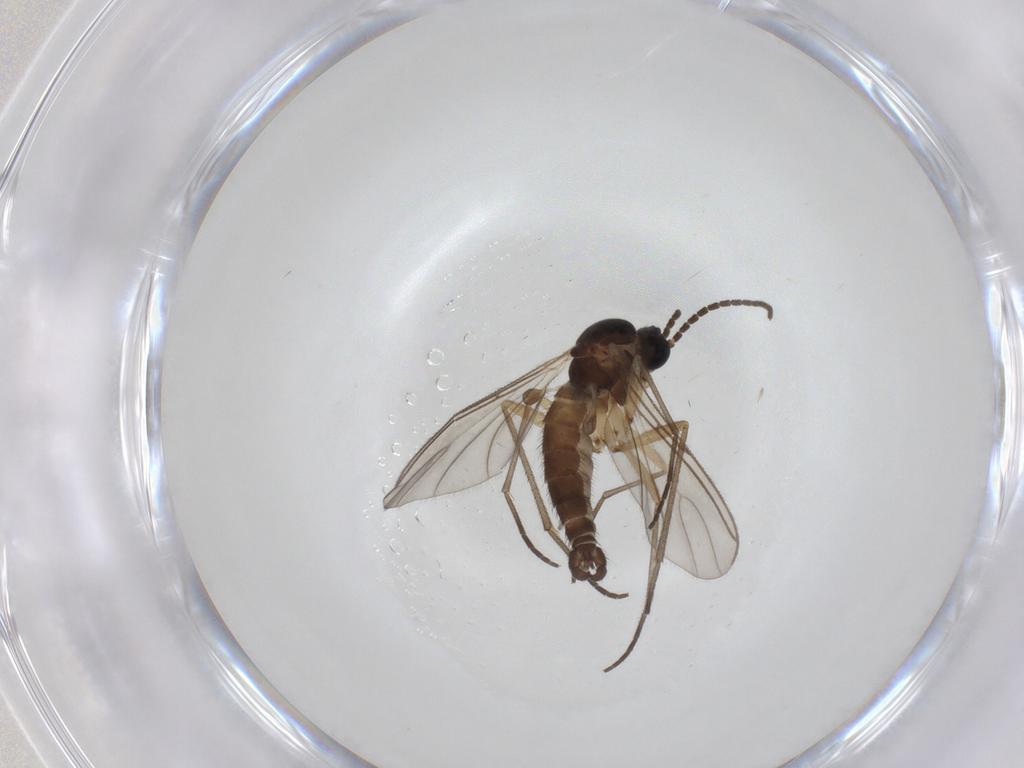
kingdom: Animalia
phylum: Arthropoda
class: Insecta
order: Diptera
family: Sciaridae
